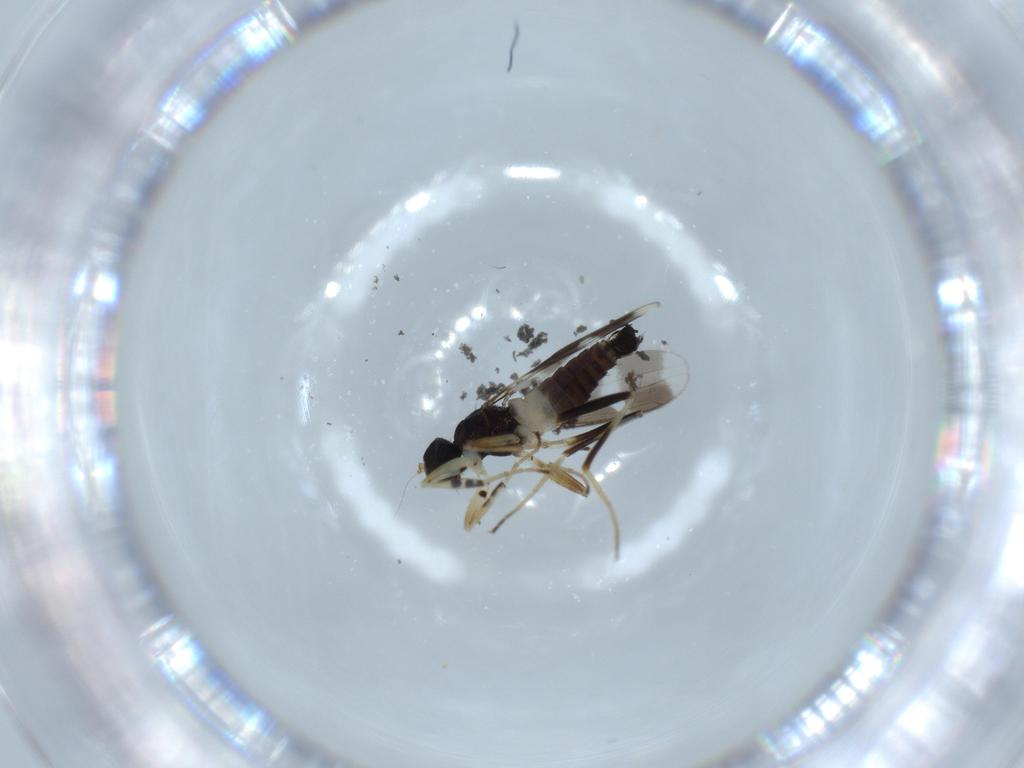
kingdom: Animalia
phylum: Arthropoda
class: Insecta
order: Diptera
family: Hybotidae
